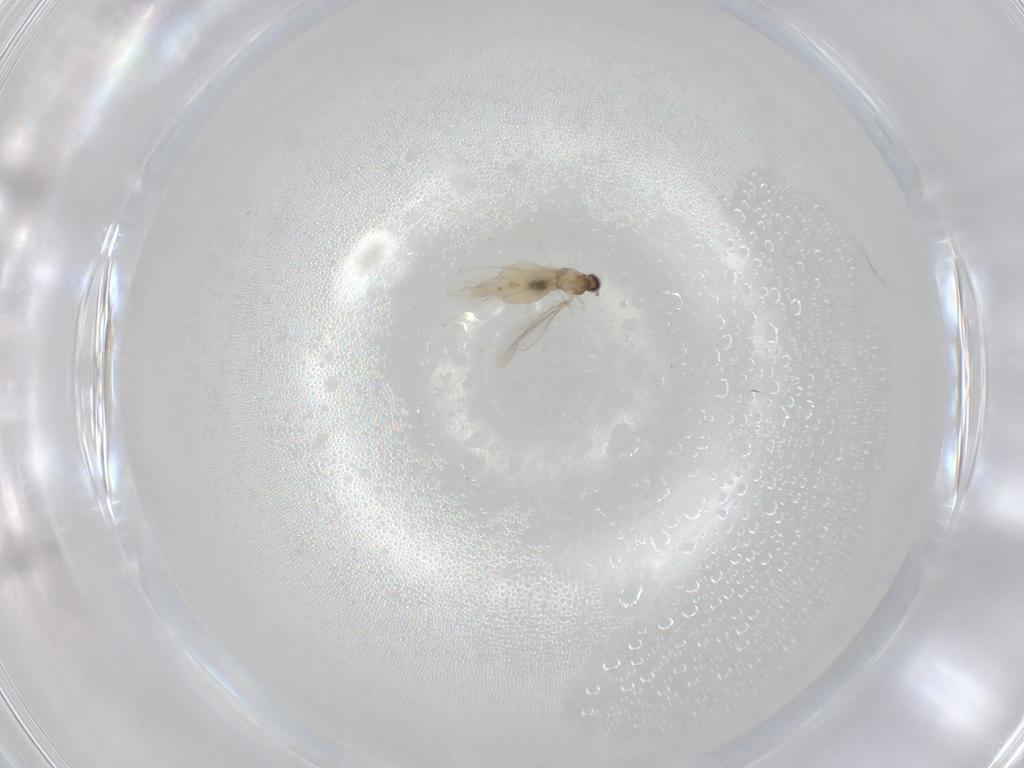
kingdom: Animalia
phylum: Arthropoda
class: Insecta
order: Diptera
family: Cecidomyiidae
